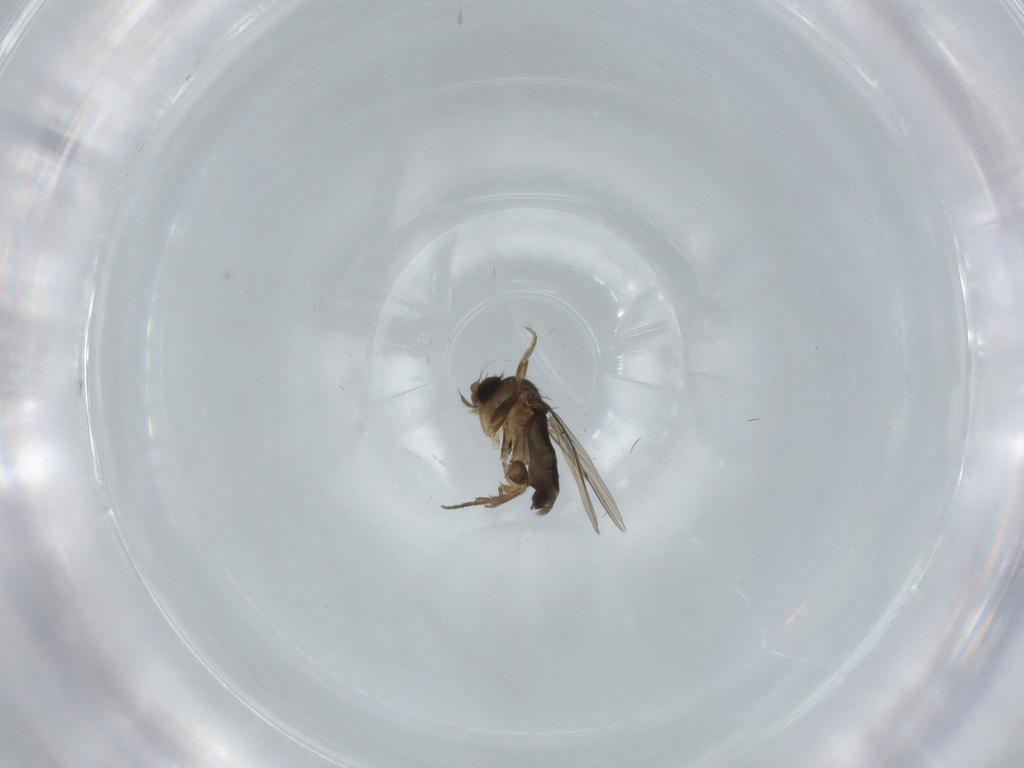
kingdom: Animalia
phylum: Arthropoda
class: Insecta
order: Diptera
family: Phoridae
